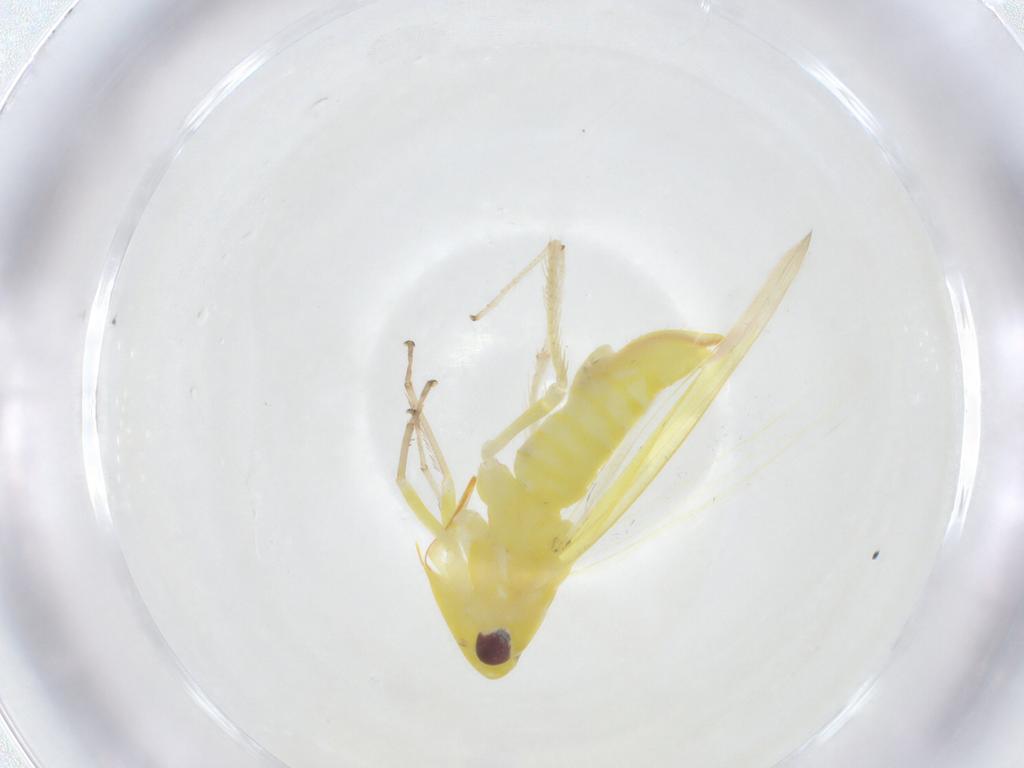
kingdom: Animalia
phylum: Arthropoda
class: Insecta
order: Hemiptera
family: Cicadellidae
